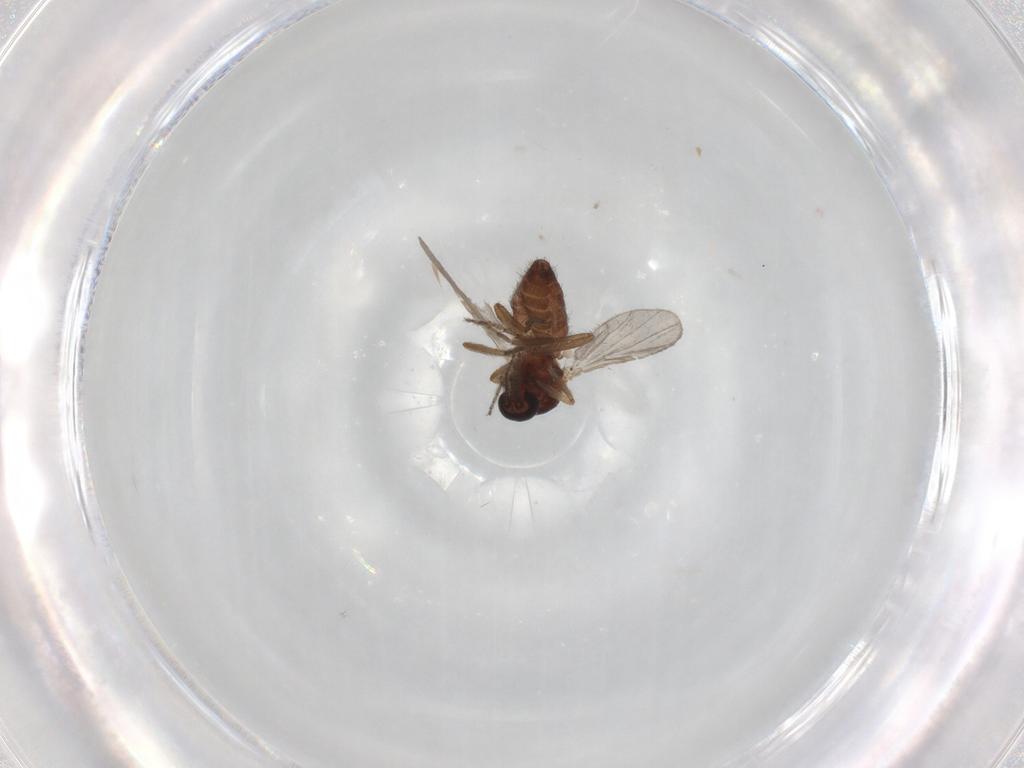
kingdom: Animalia
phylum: Arthropoda
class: Insecta
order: Diptera
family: Ceratopogonidae
